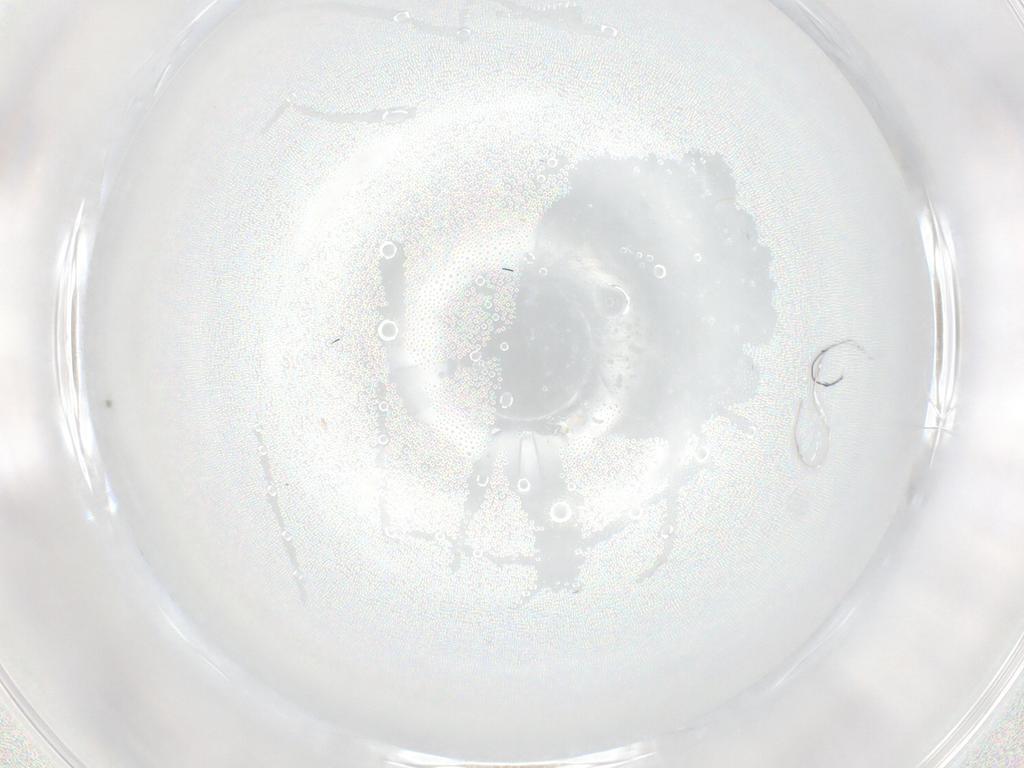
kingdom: Animalia
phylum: Arthropoda
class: Insecta
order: Diptera
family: Cecidomyiidae
